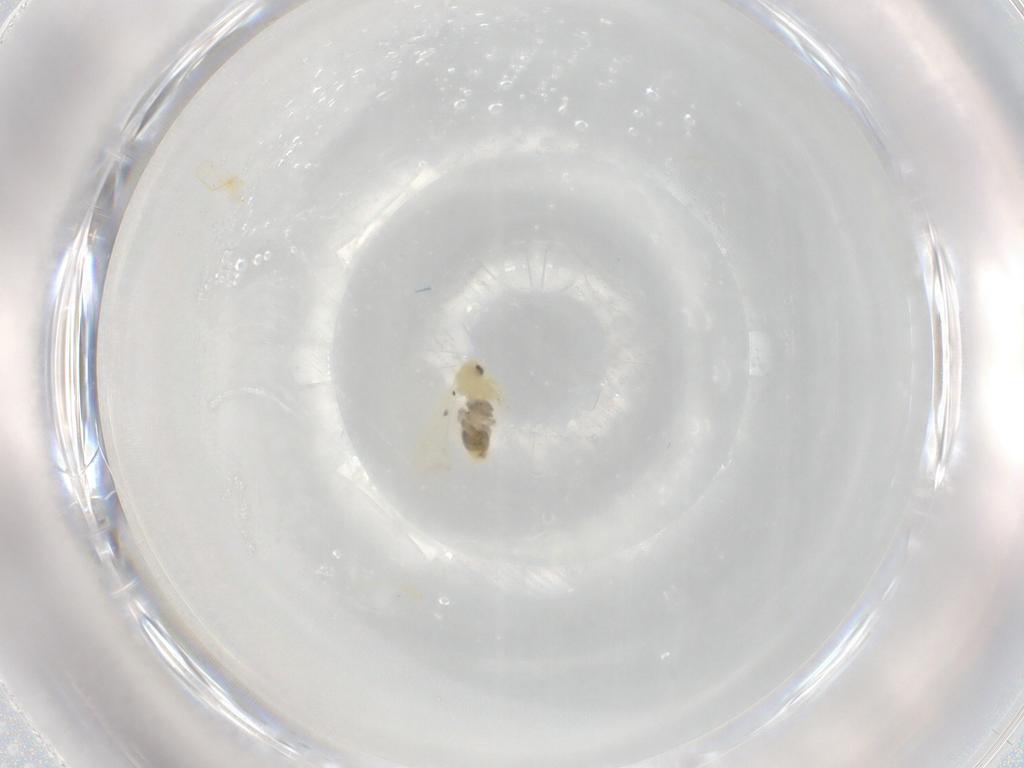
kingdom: Animalia
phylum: Arthropoda
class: Insecta
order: Hemiptera
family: Aleyrodidae
